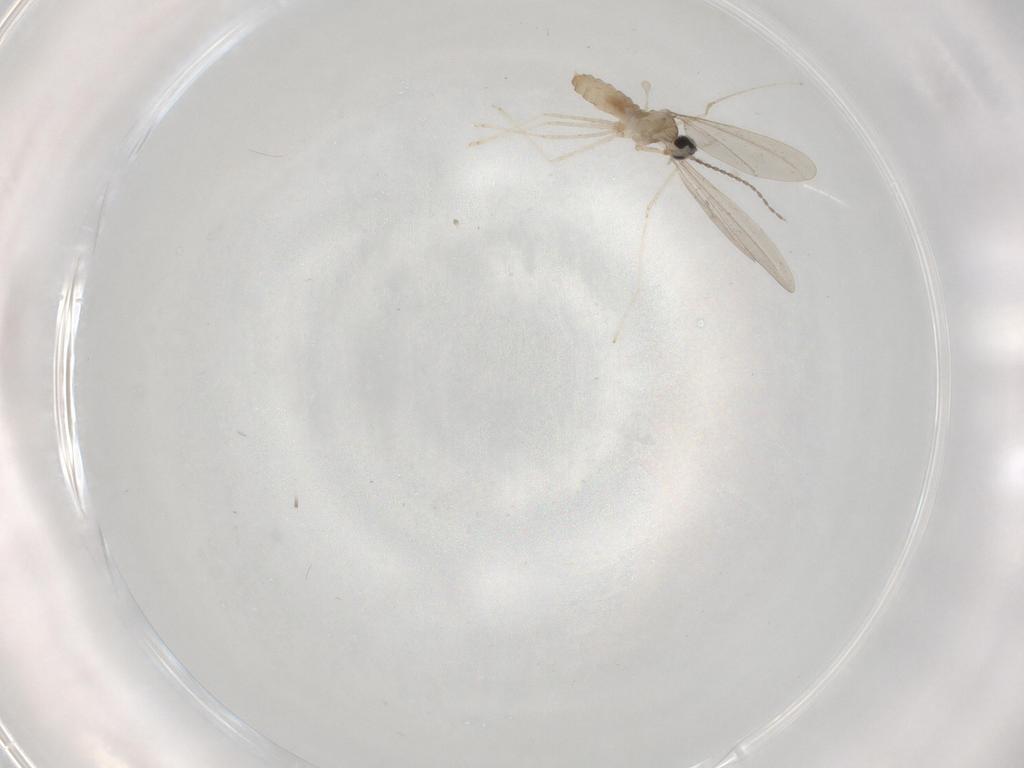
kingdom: Animalia
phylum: Arthropoda
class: Insecta
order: Diptera
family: Cecidomyiidae
